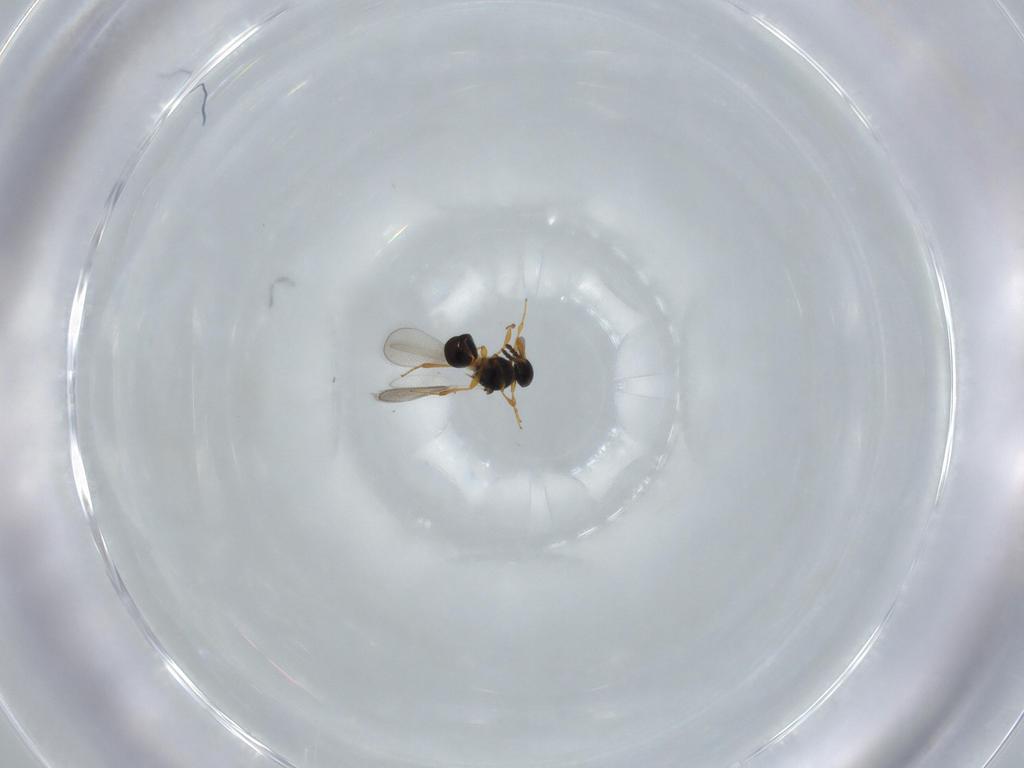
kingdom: Animalia
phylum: Arthropoda
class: Insecta
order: Hymenoptera
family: Platygastridae
